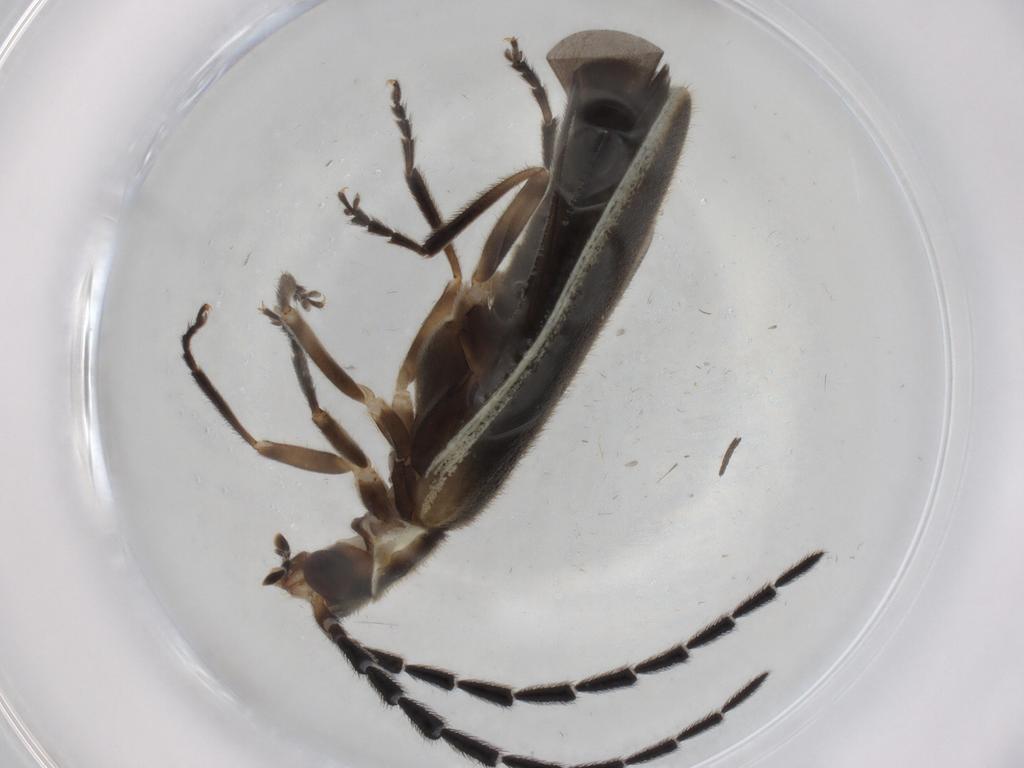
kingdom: Animalia
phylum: Arthropoda
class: Insecta
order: Coleoptera
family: Cantharidae
